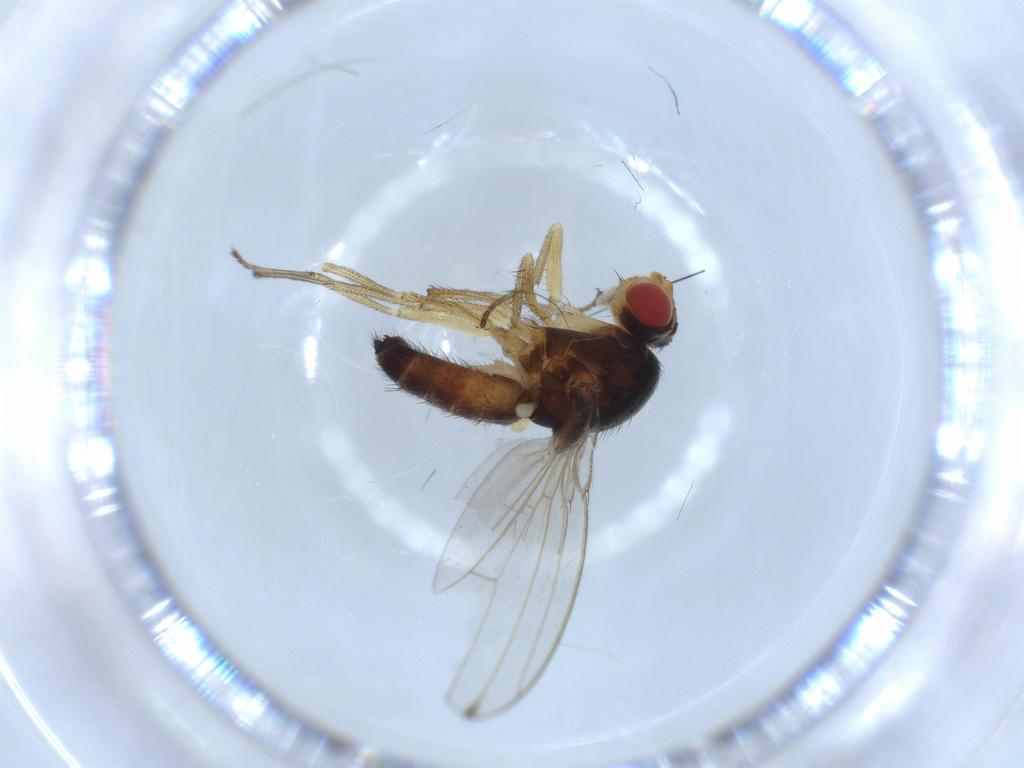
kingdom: Animalia
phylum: Arthropoda
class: Insecta
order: Diptera
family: Drosophilidae
